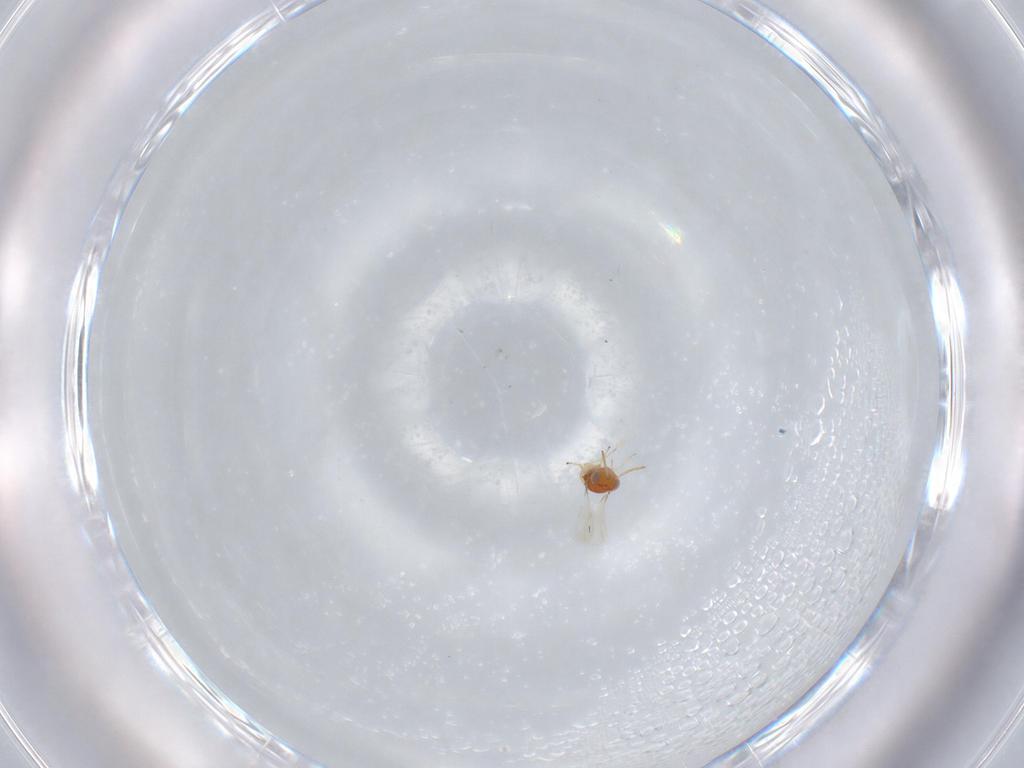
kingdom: Animalia
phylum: Arthropoda
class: Insecta
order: Hymenoptera
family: Aphelinidae
